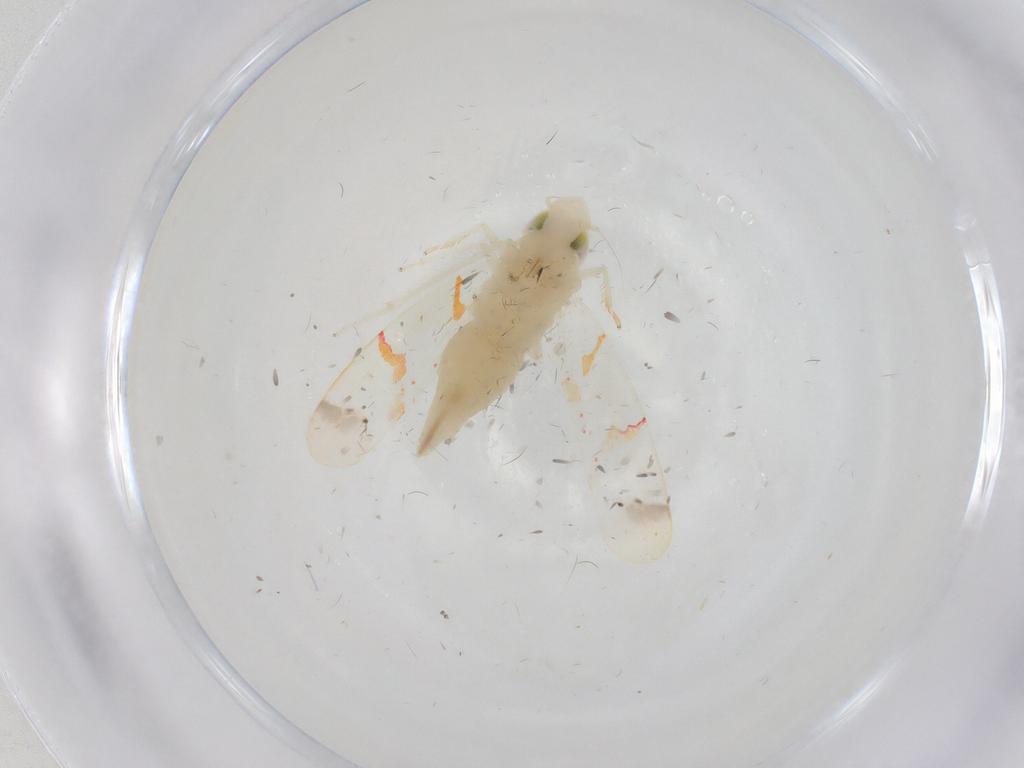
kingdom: Animalia
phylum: Arthropoda
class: Insecta
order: Hemiptera
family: Cicadellidae
